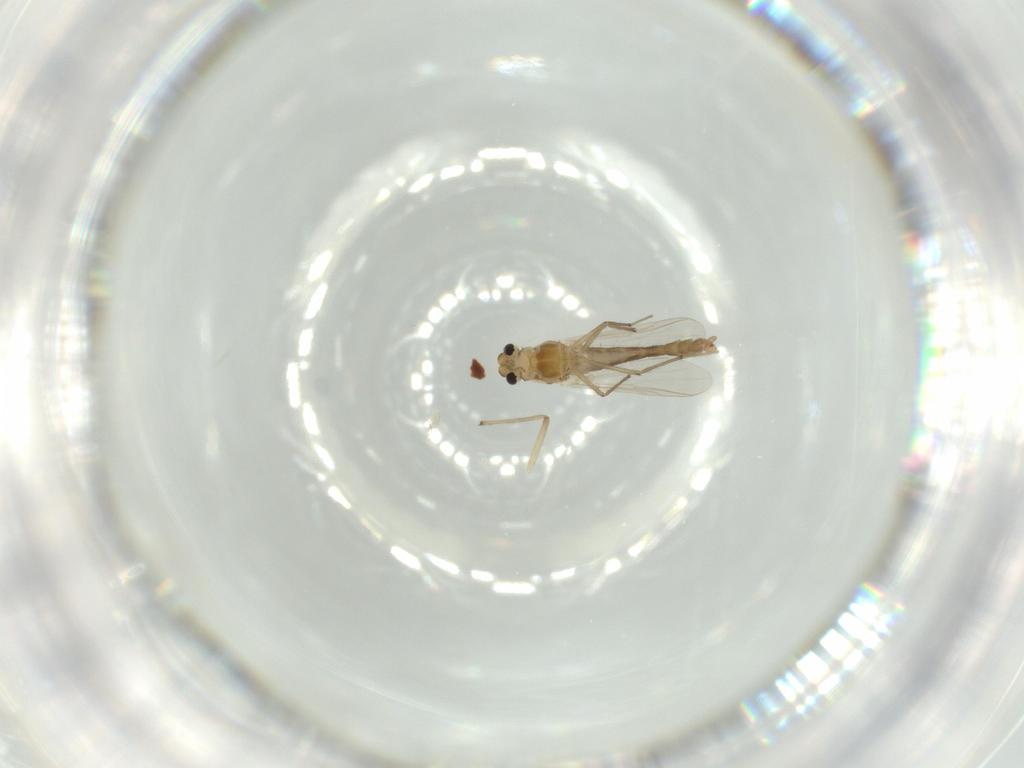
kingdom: Animalia
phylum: Arthropoda
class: Insecta
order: Diptera
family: Chironomidae
